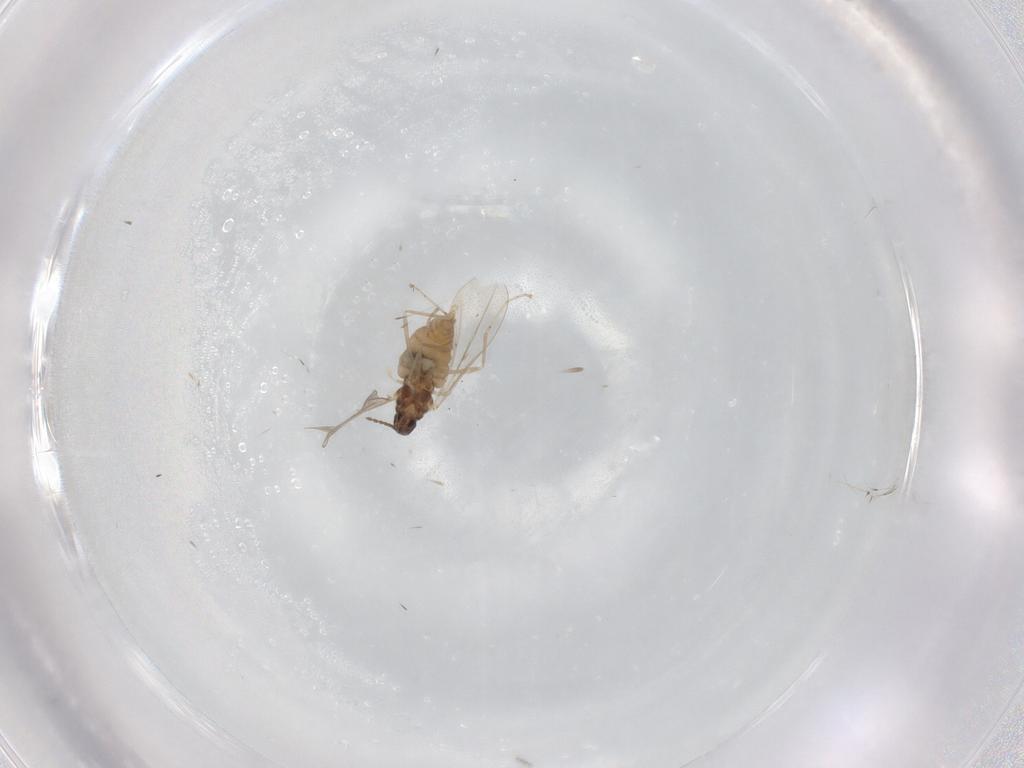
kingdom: Animalia
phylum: Arthropoda
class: Insecta
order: Diptera
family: Cecidomyiidae
